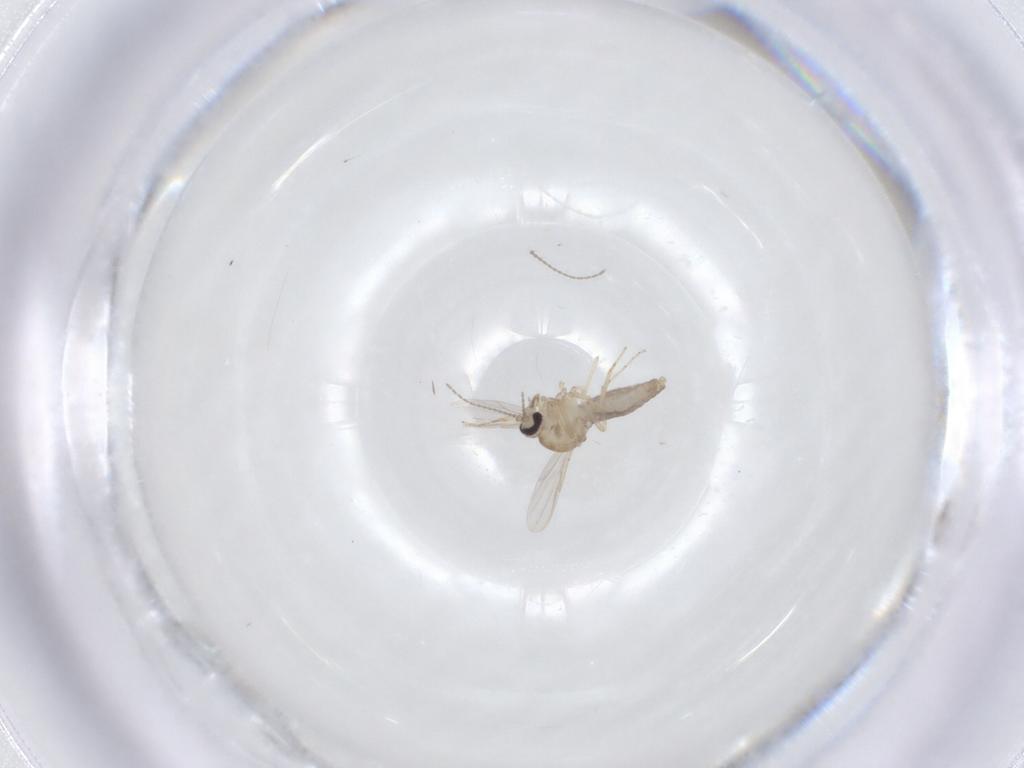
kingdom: Animalia
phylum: Arthropoda
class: Insecta
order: Diptera
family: Ceratopogonidae
